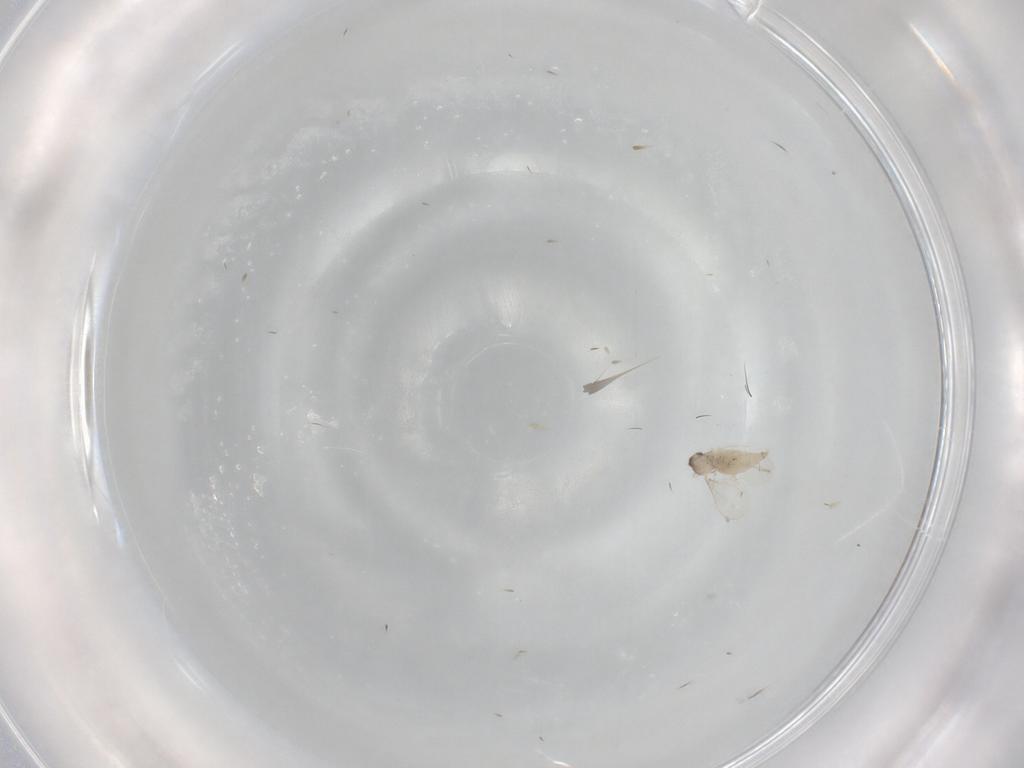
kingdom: Animalia
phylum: Arthropoda
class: Insecta
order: Diptera
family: Cecidomyiidae
